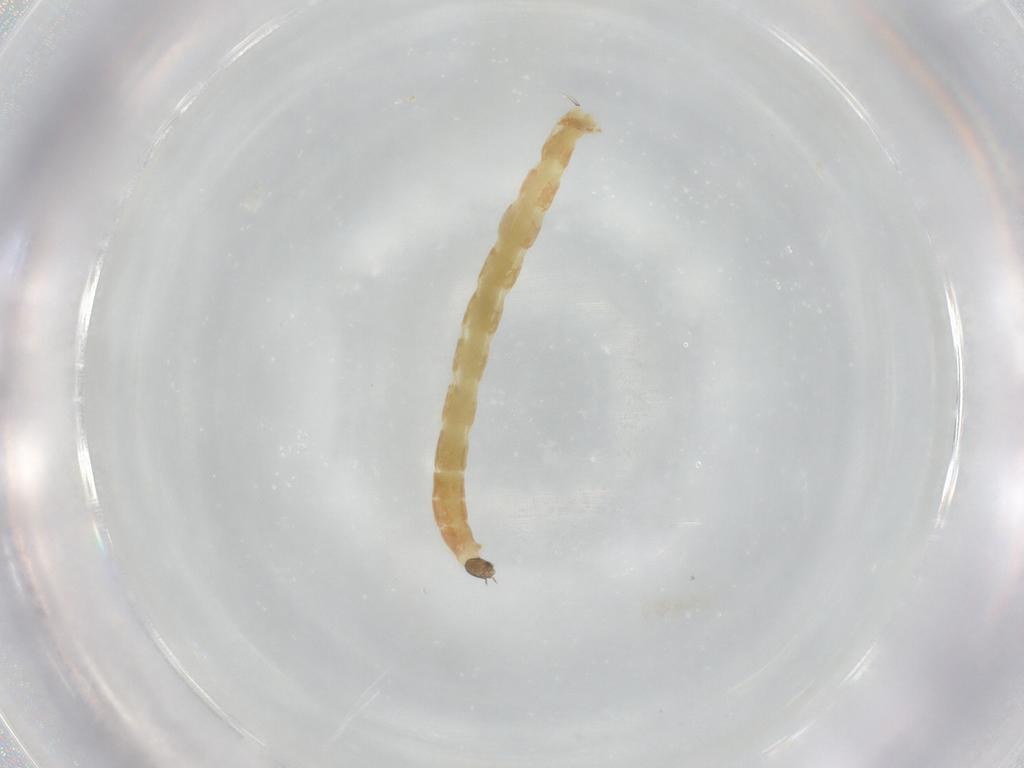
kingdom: Animalia
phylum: Arthropoda
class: Insecta
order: Diptera
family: Chironomidae
